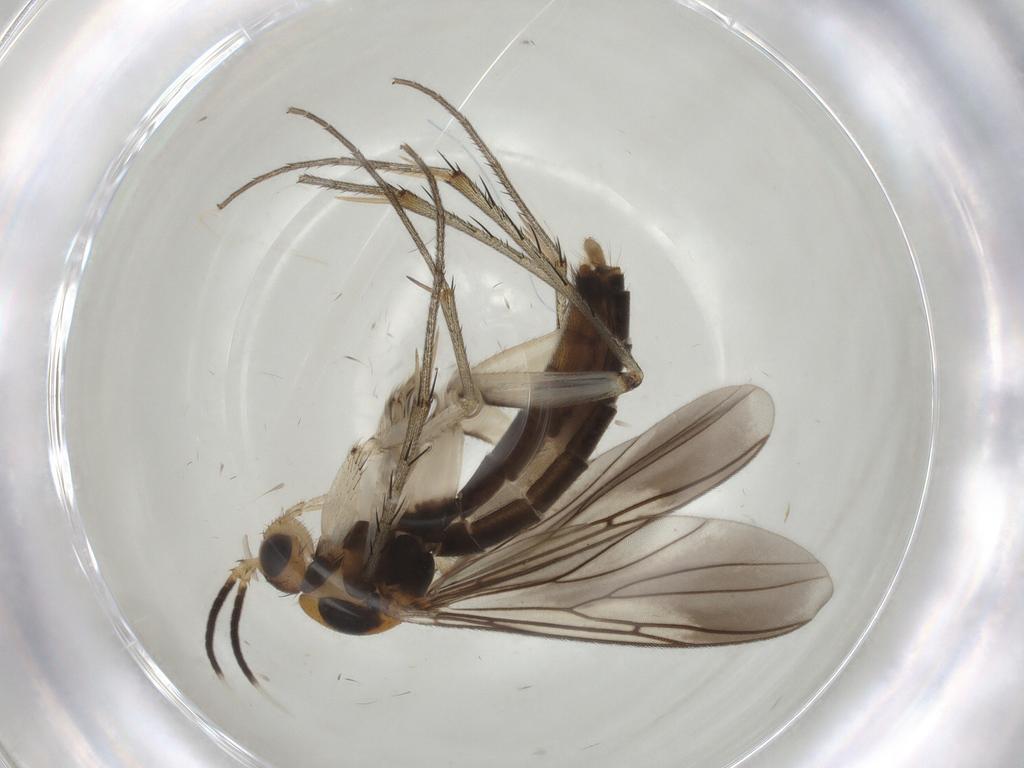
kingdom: Animalia
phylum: Arthropoda
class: Insecta
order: Diptera
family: Mycetophilidae
